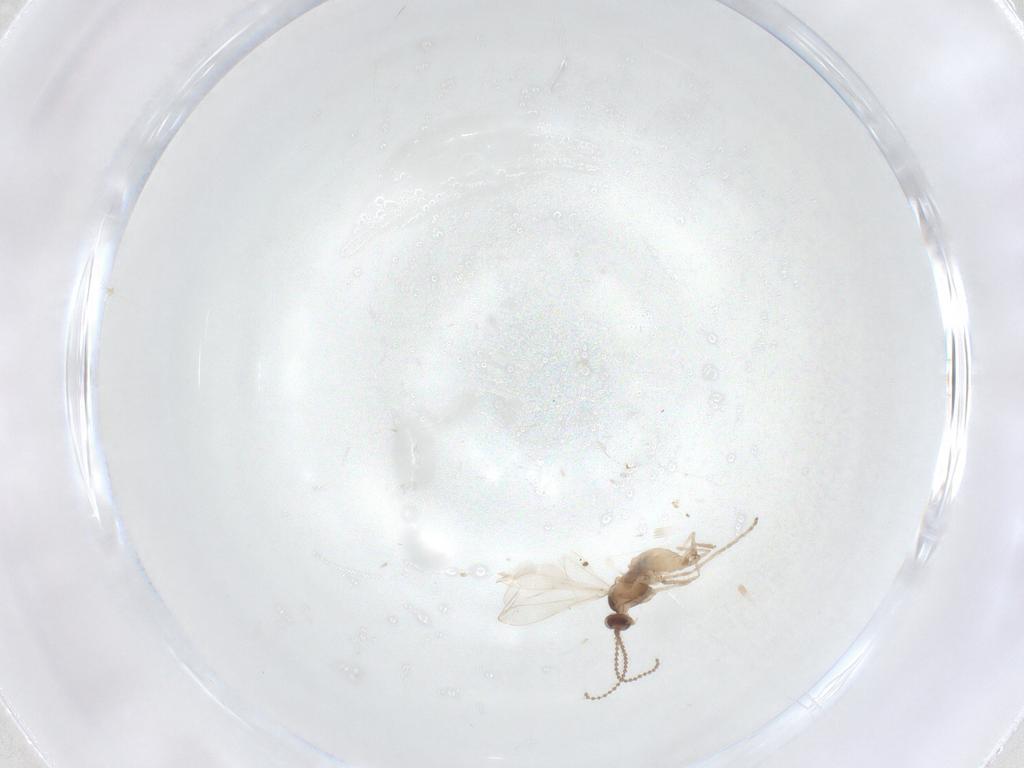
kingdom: Animalia
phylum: Arthropoda
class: Insecta
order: Diptera
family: Cecidomyiidae
